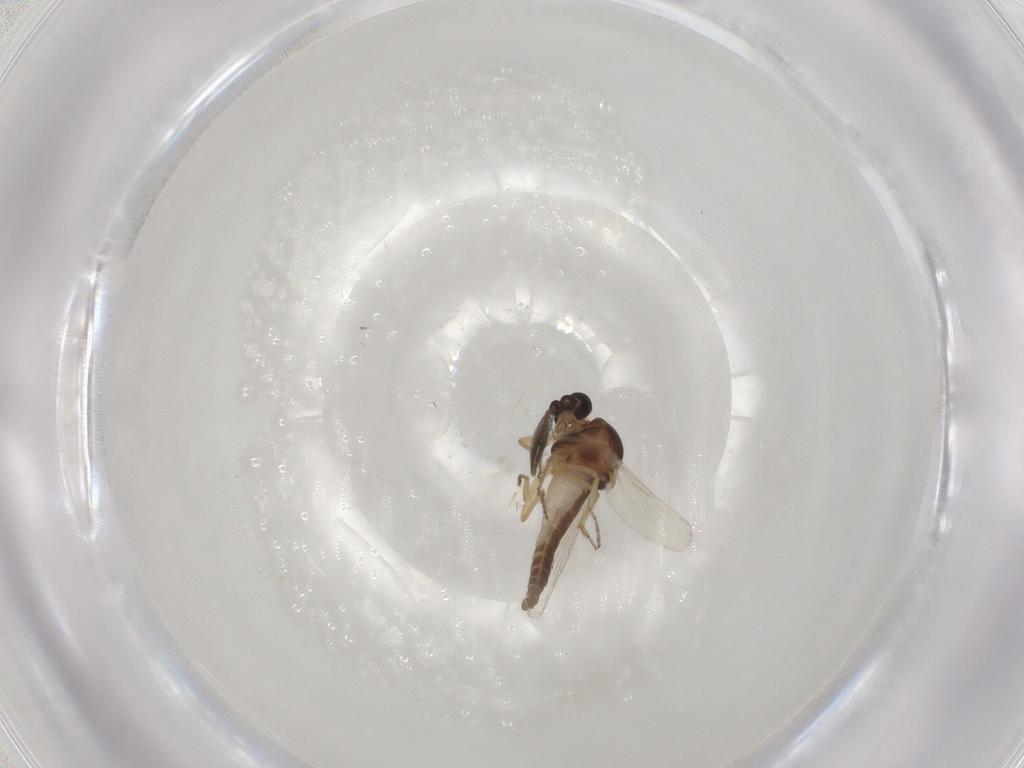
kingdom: Animalia
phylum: Arthropoda
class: Insecta
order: Diptera
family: Ceratopogonidae
